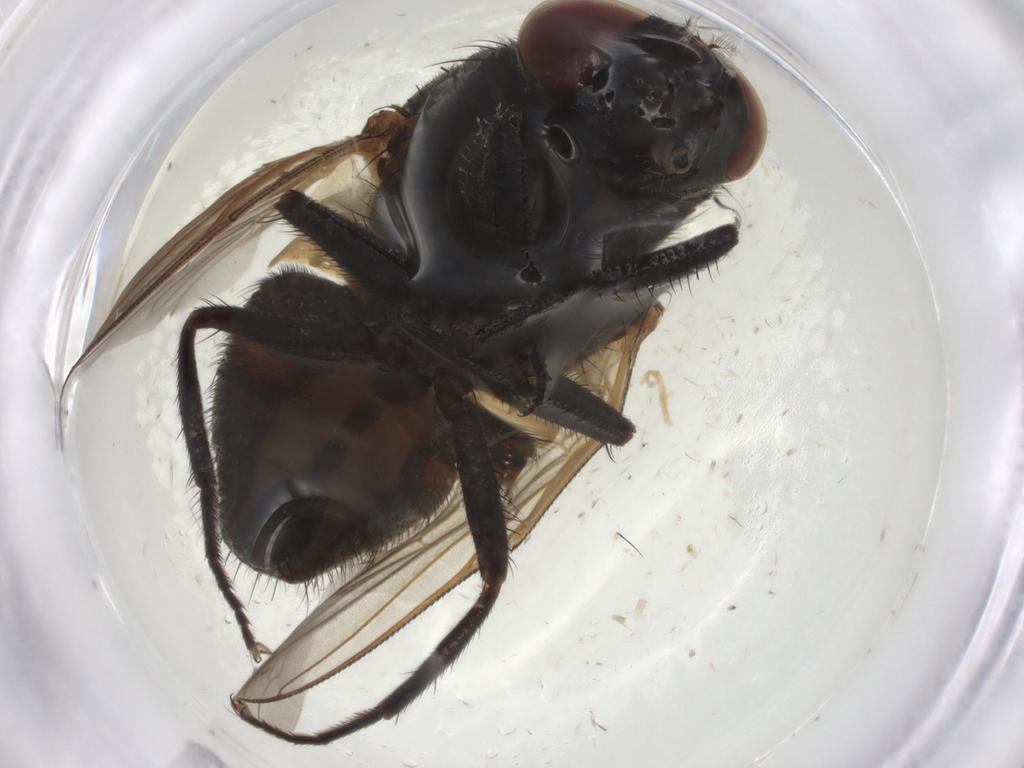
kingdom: Animalia
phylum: Arthropoda
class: Insecta
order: Diptera
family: Muscidae
